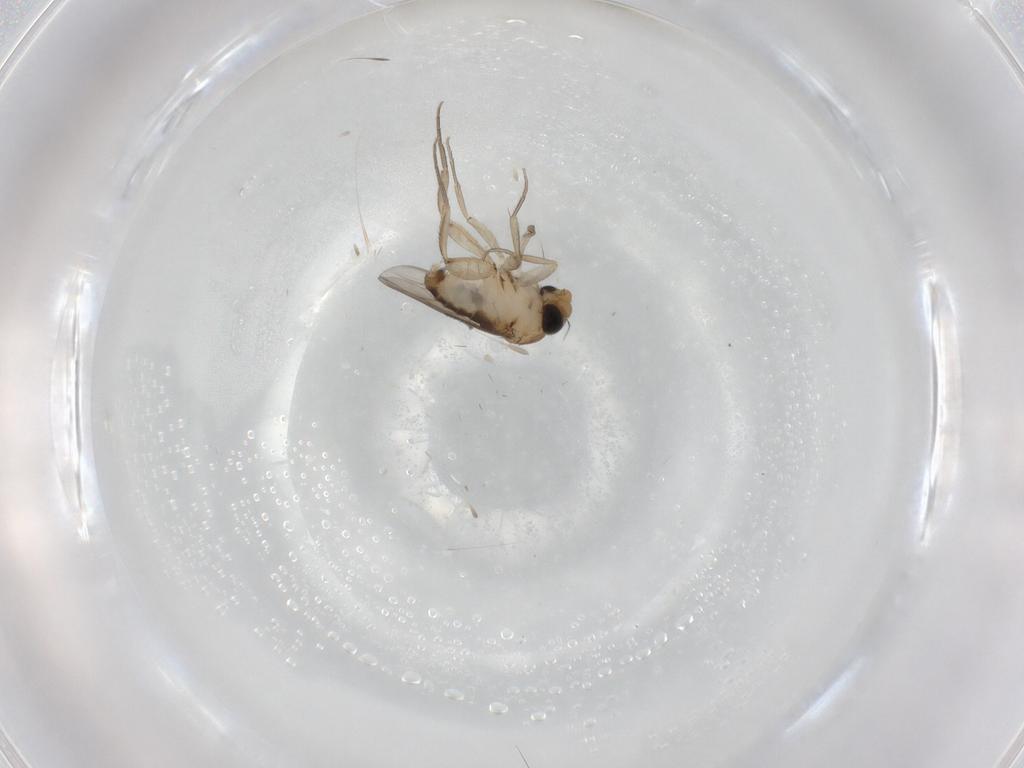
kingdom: Animalia
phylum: Arthropoda
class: Insecta
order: Diptera
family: Phoridae
